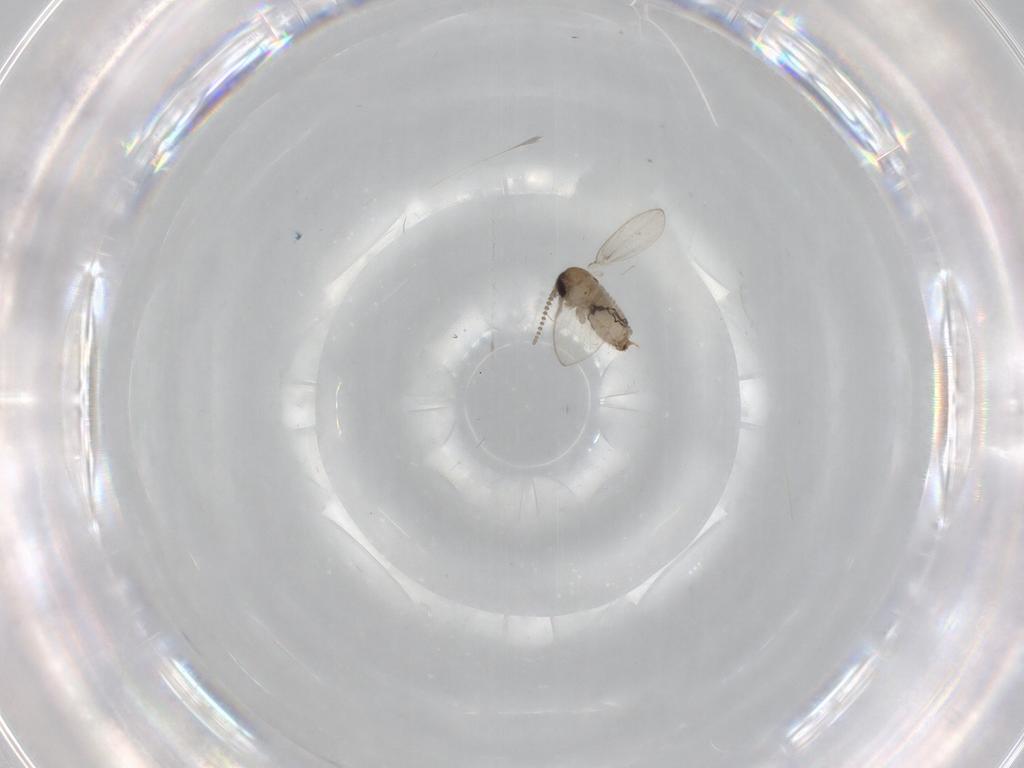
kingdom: Animalia
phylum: Arthropoda
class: Insecta
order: Diptera
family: Psychodidae
